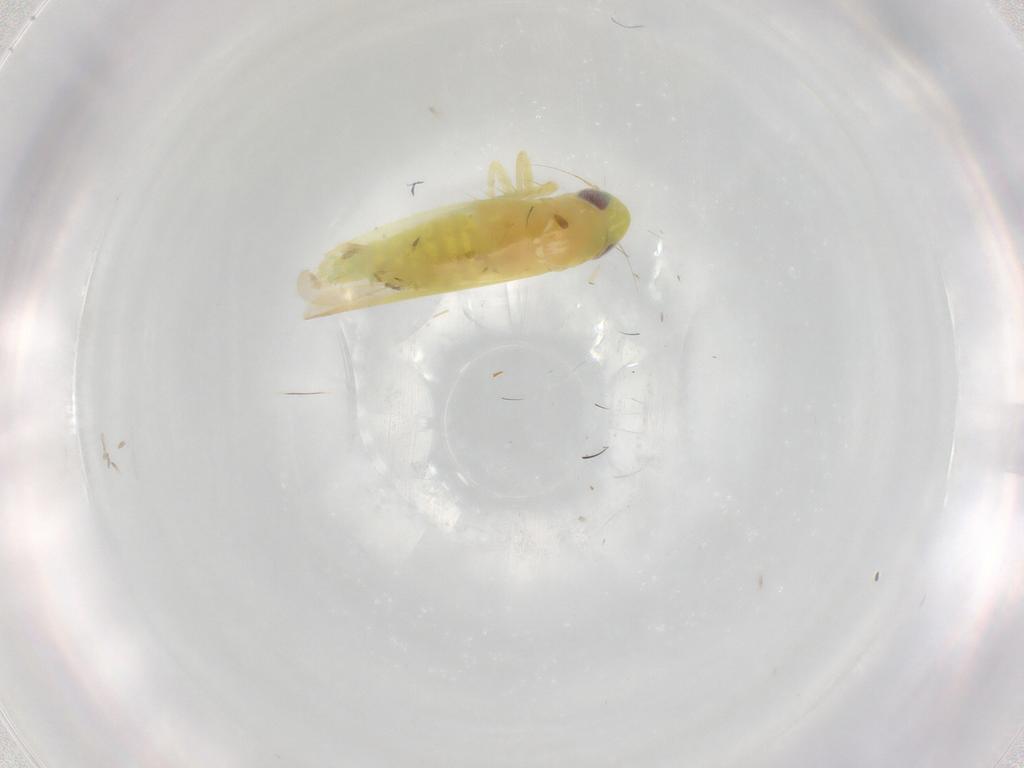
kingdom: Animalia
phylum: Arthropoda
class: Insecta
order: Hemiptera
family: Cicadellidae
